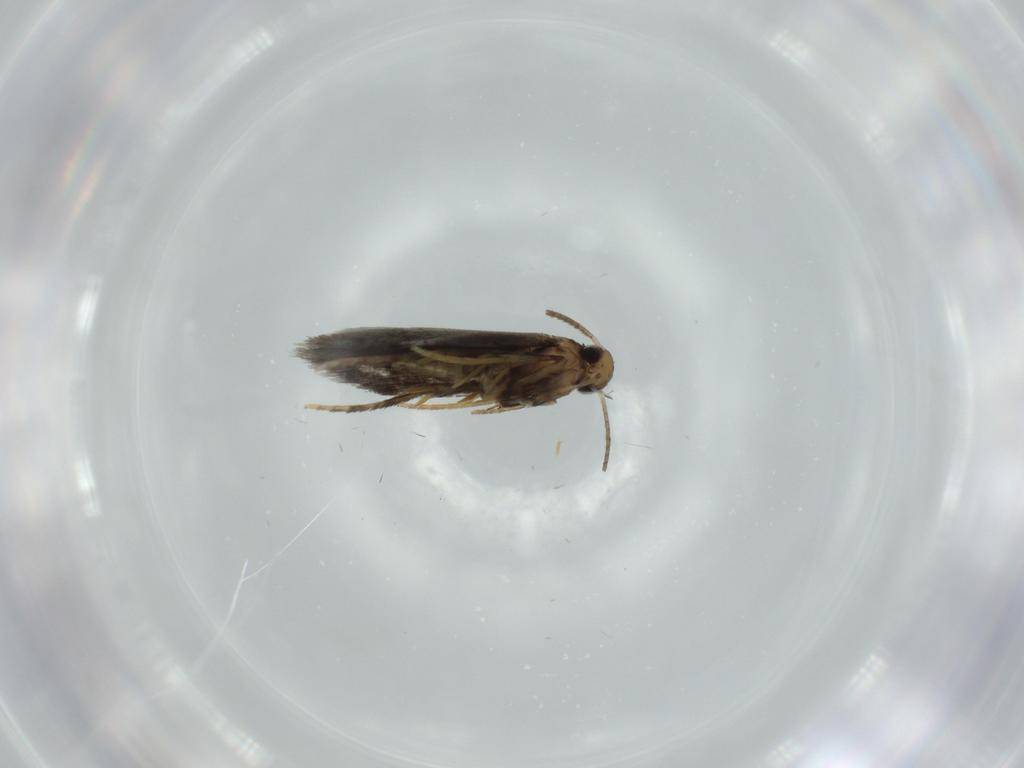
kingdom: Animalia
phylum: Arthropoda
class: Insecta
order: Lepidoptera
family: Heliozelidae
